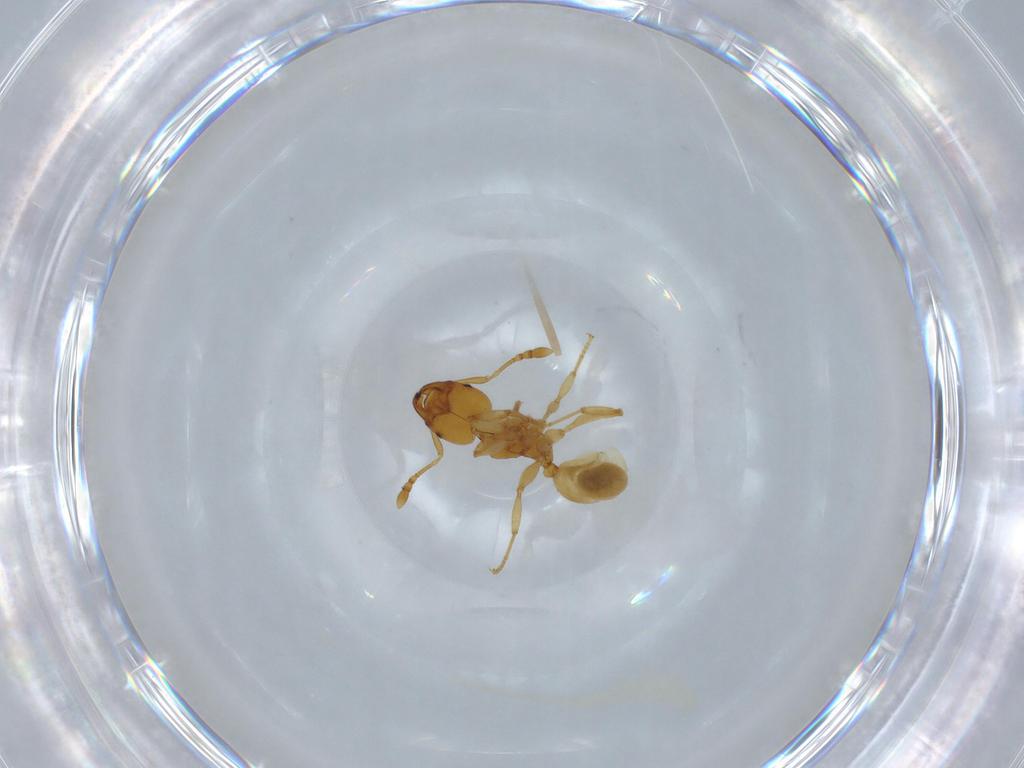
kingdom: Animalia
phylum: Arthropoda
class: Insecta
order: Hymenoptera
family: Formicidae
